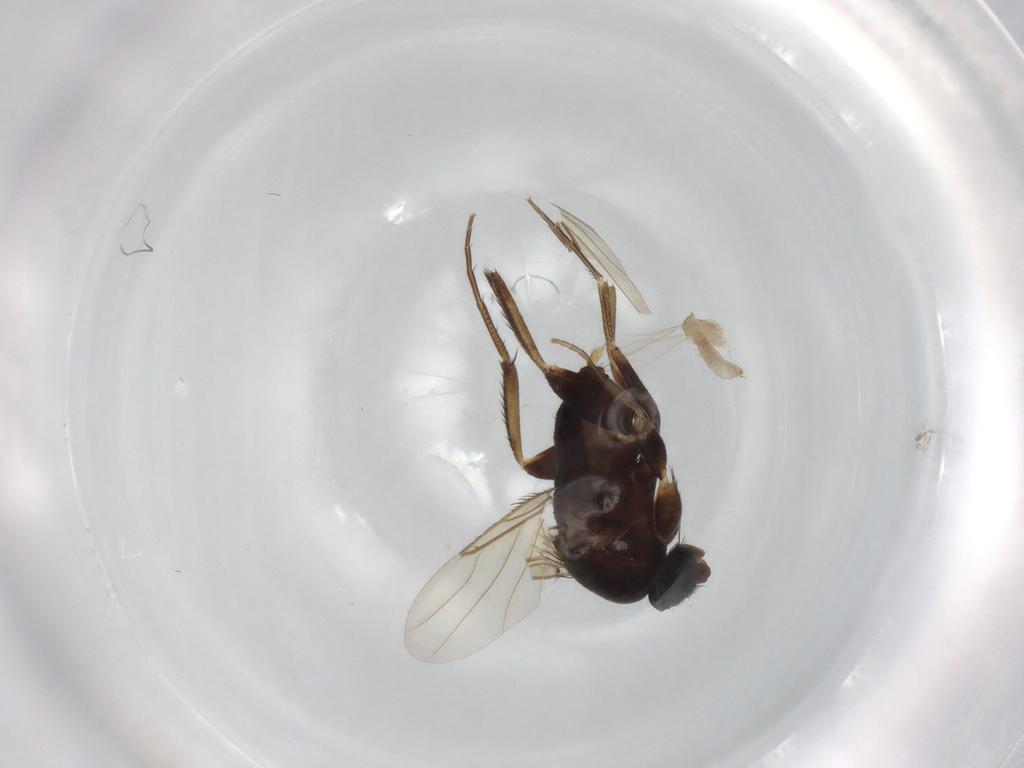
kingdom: Animalia
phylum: Arthropoda
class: Insecta
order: Diptera
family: Phoridae
